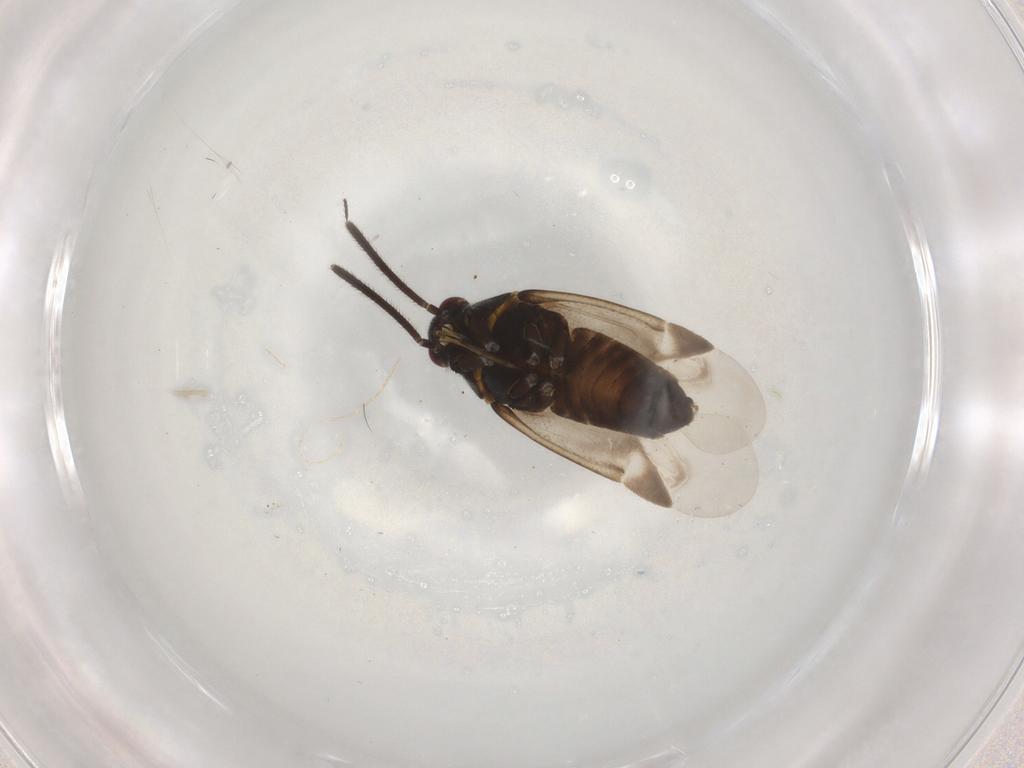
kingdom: Animalia
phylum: Arthropoda
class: Insecta
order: Hemiptera
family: Miridae
